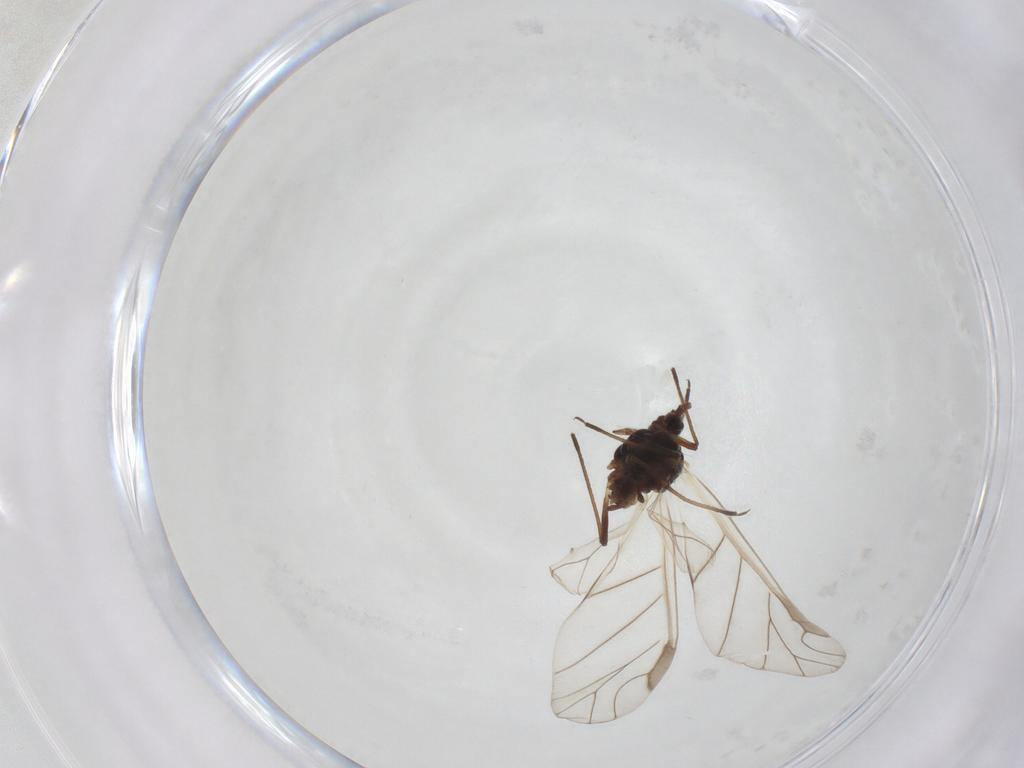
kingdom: Animalia
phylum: Arthropoda
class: Insecta
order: Hemiptera
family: Aphididae
